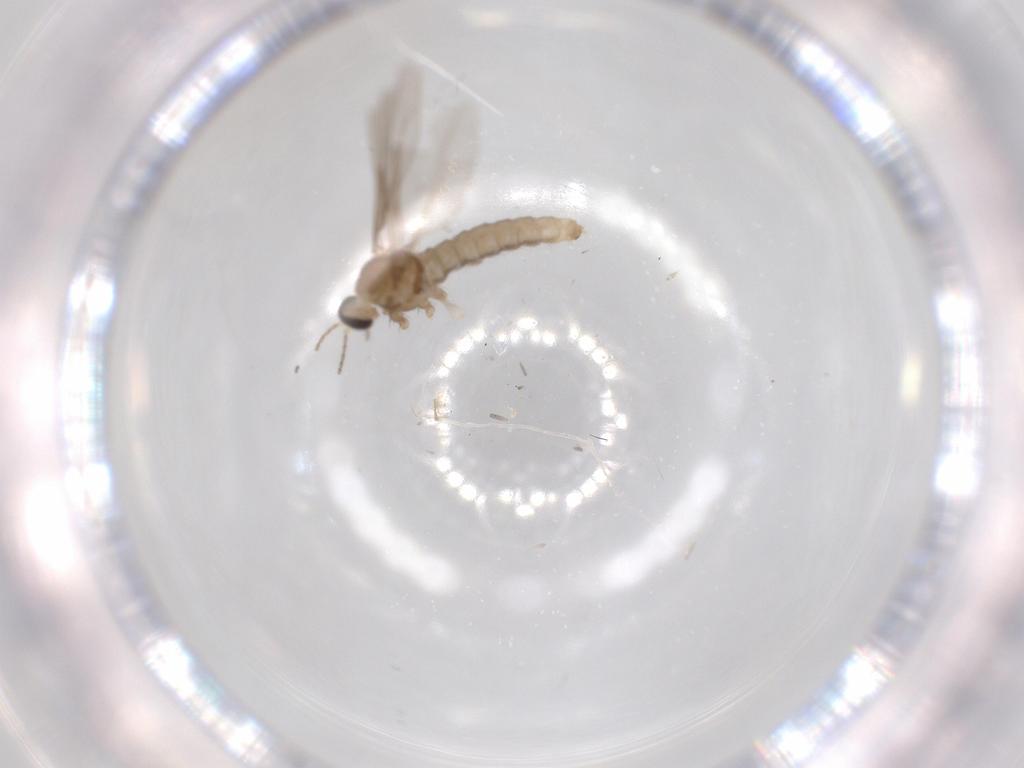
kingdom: Animalia
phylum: Arthropoda
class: Insecta
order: Diptera
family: Cecidomyiidae
